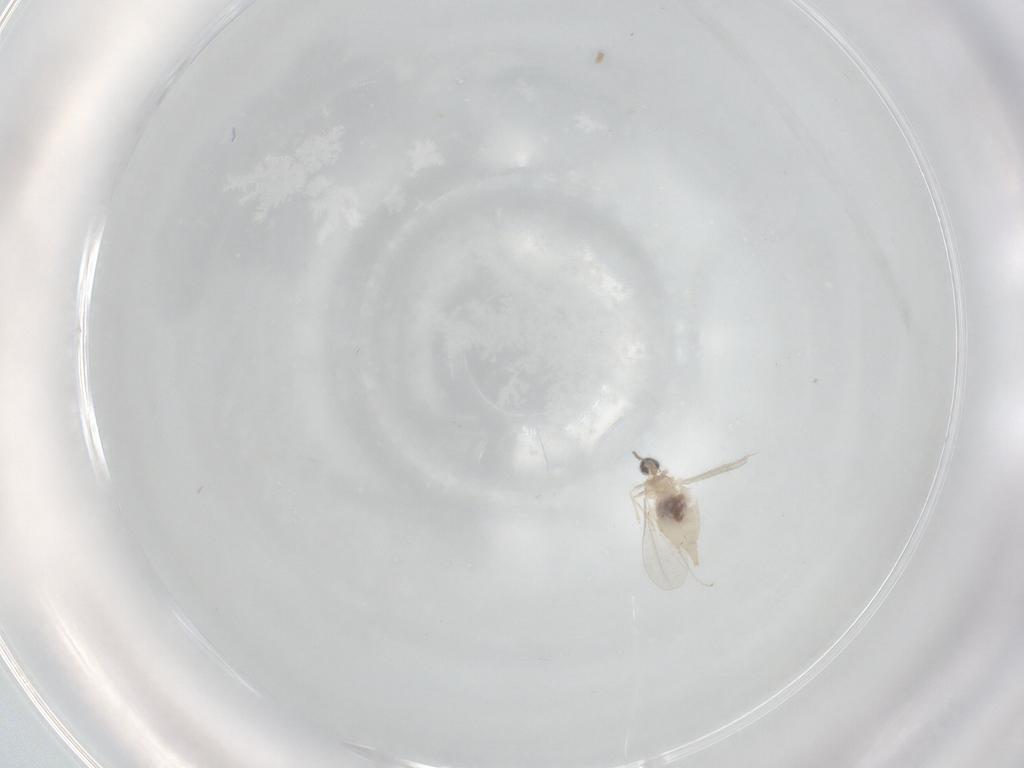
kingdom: Animalia
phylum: Arthropoda
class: Insecta
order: Diptera
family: Cecidomyiidae
